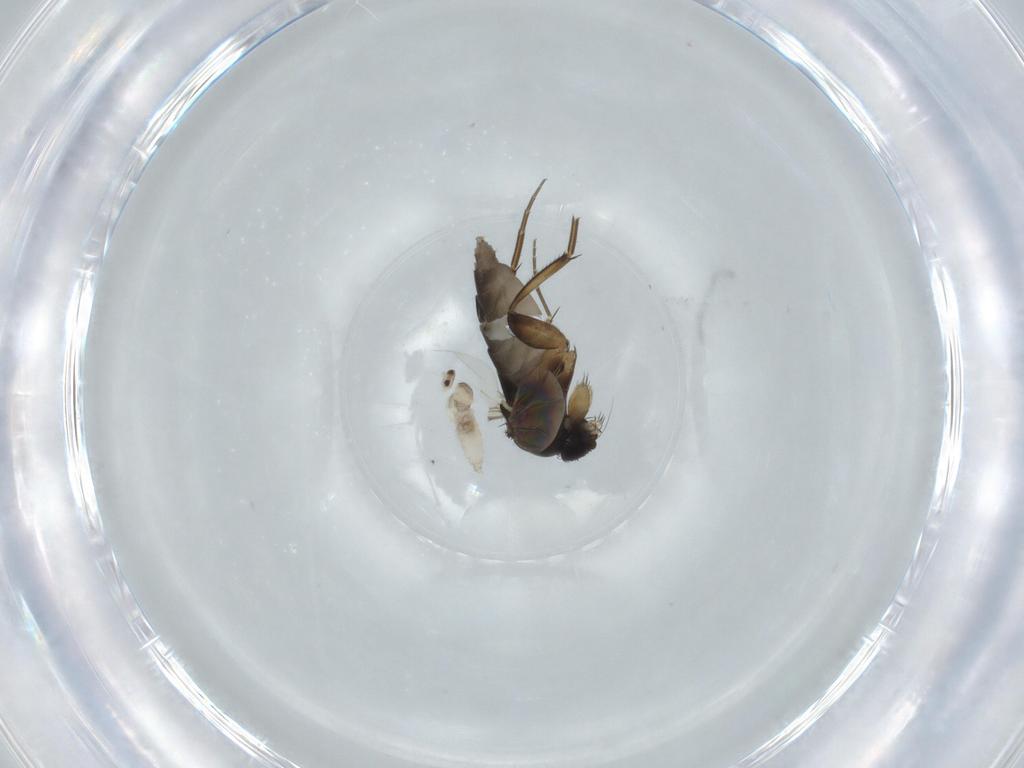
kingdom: Animalia
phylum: Arthropoda
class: Insecta
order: Diptera
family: Phoridae
